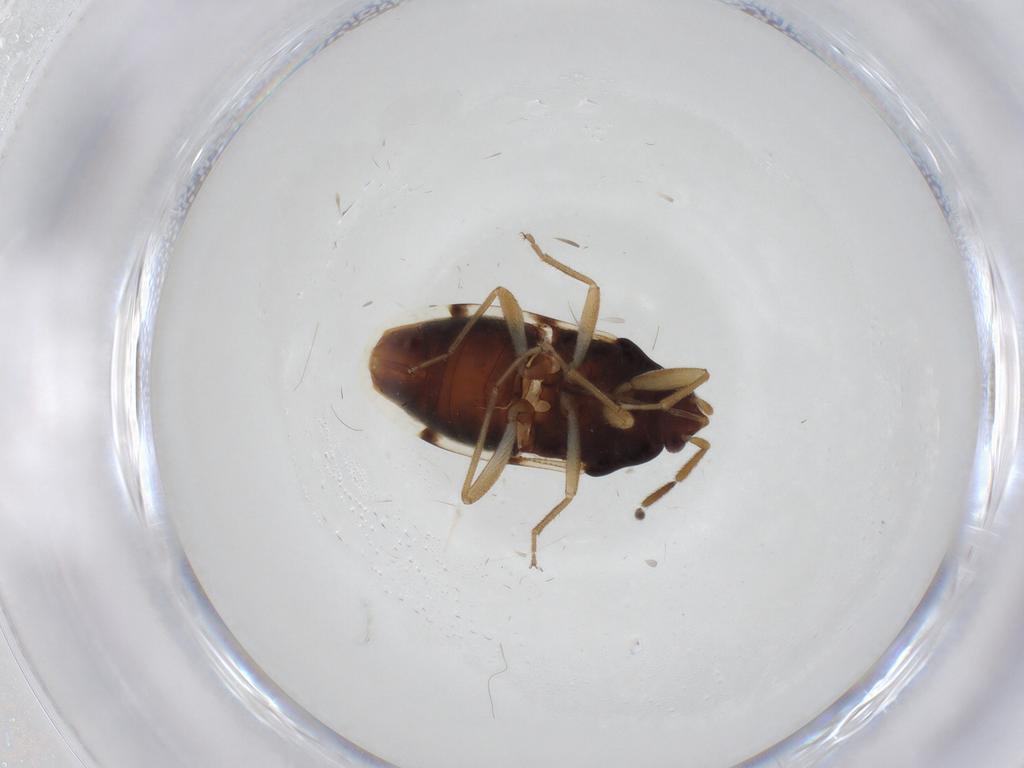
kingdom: Animalia
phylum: Arthropoda
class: Insecta
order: Hemiptera
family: Rhyparochromidae
